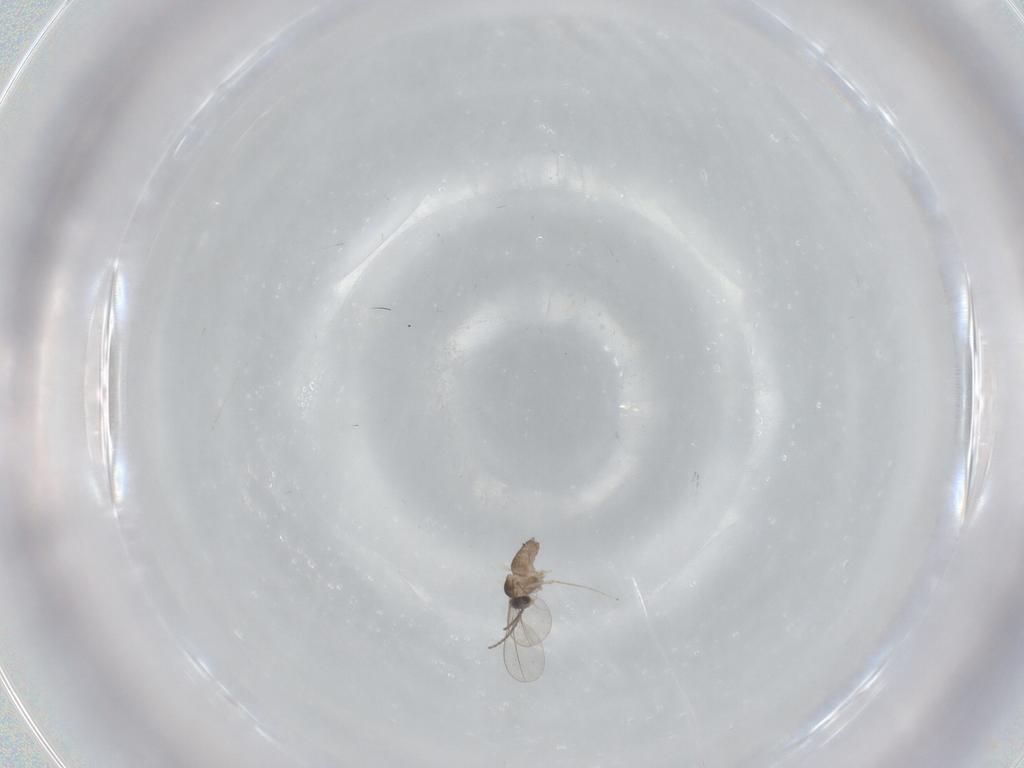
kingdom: Animalia
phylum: Arthropoda
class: Insecta
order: Diptera
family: Cecidomyiidae
